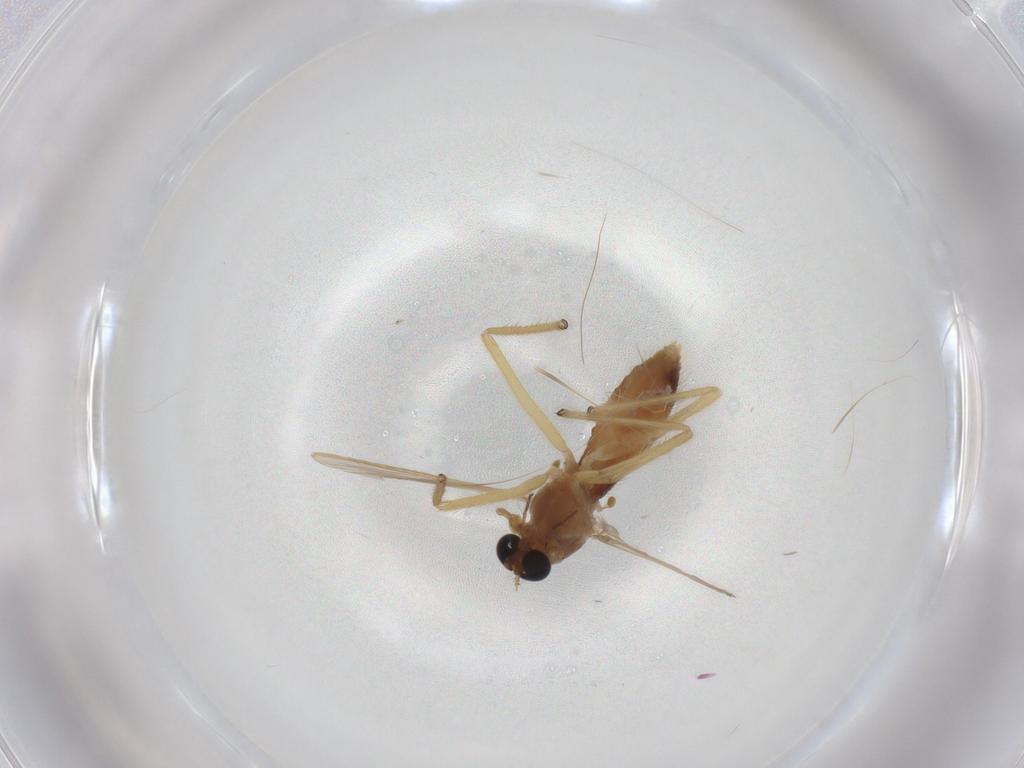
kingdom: Animalia
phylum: Arthropoda
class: Insecta
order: Diptera
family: Chironomidae
